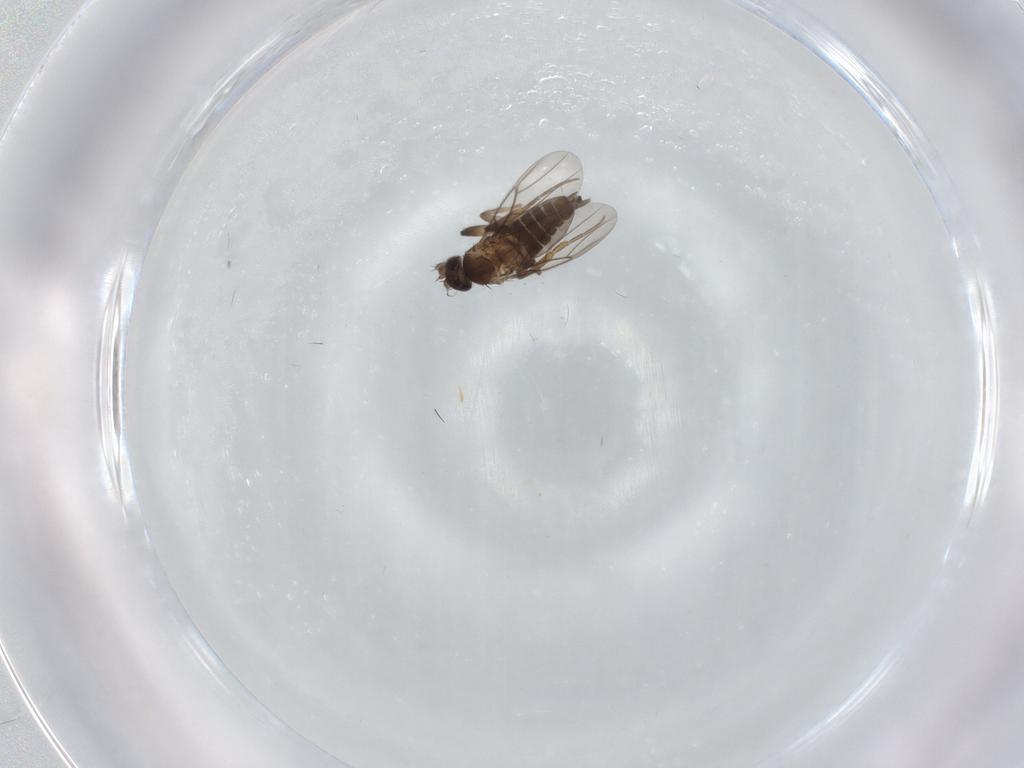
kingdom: Animalia
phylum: Arthropoda
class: Insecta
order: Diptera
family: Phoridae
